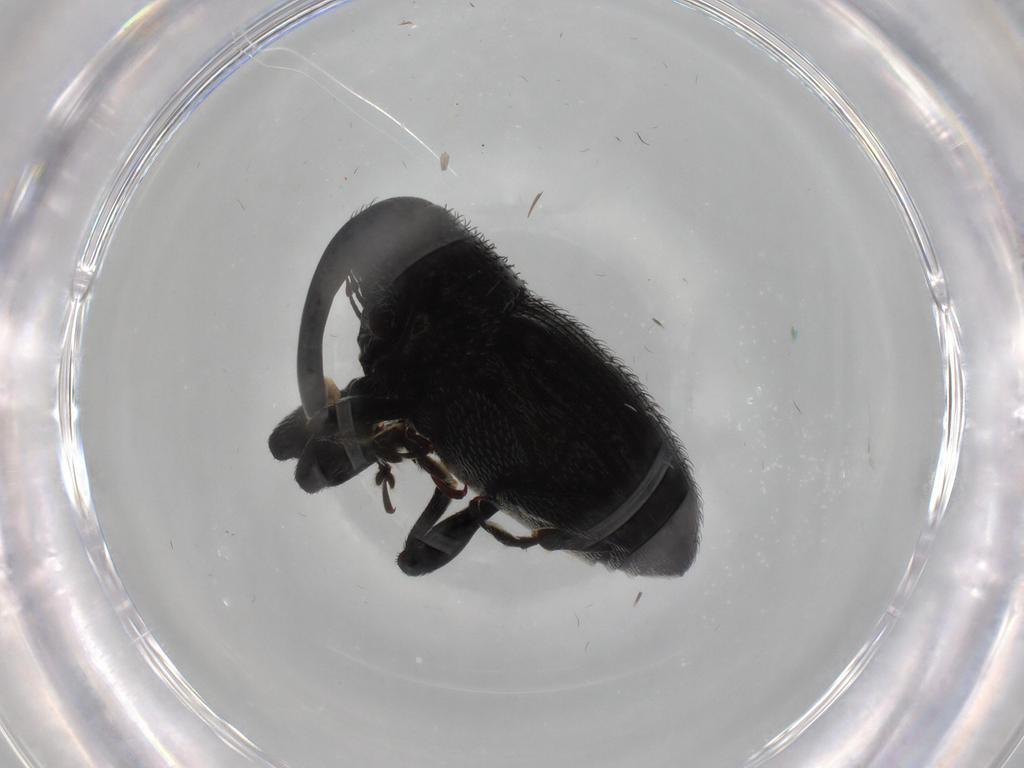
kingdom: Animalia
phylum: Arthropoda
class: Insecta
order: Coleoptera
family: Curculionidae
